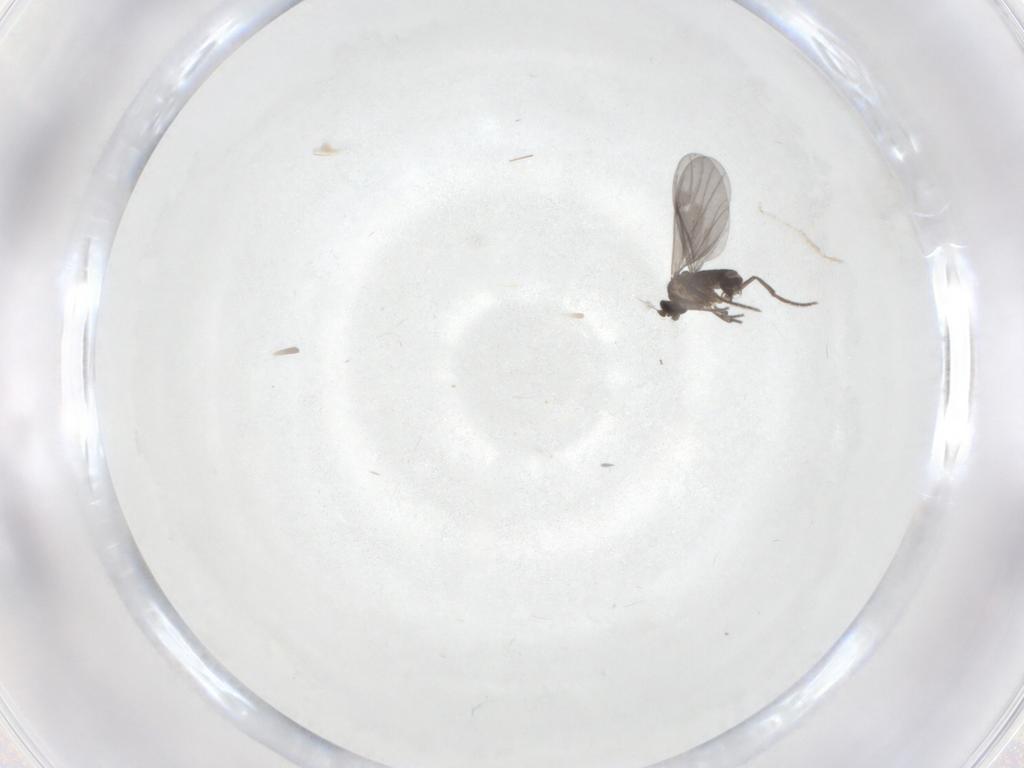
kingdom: Animalia
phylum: Arthropoda
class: Insecta
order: Diptera
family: Phoridae
